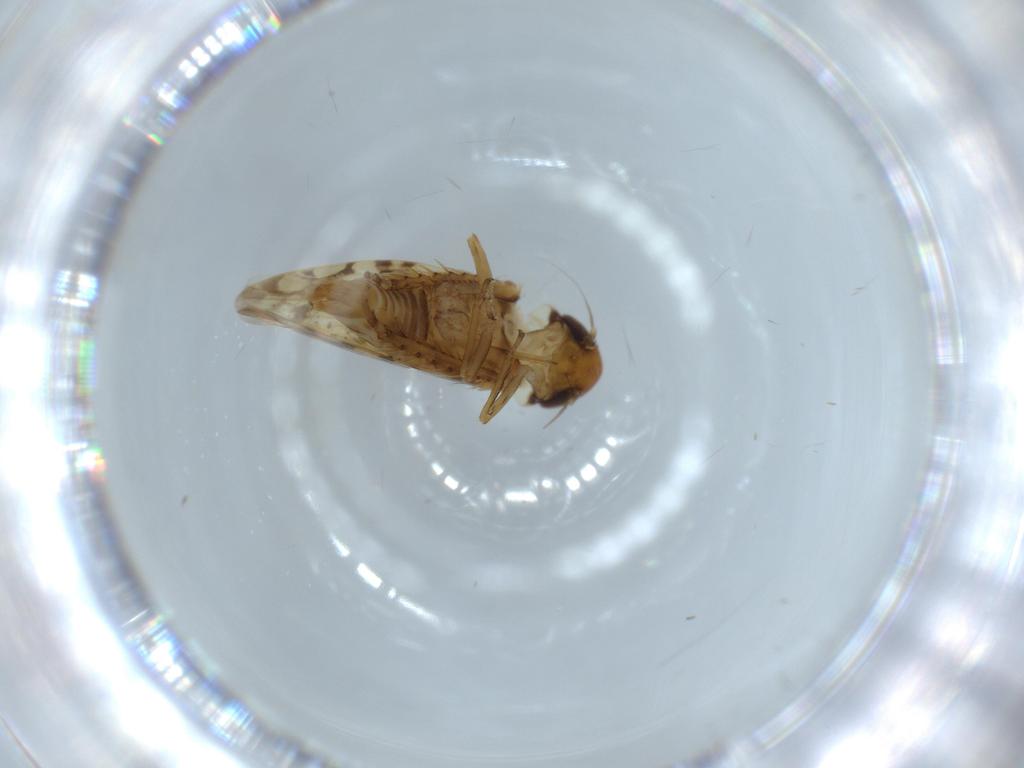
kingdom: Animalia
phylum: Arthropoda
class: Insecta
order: Hemiptera
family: Cicadellidae
